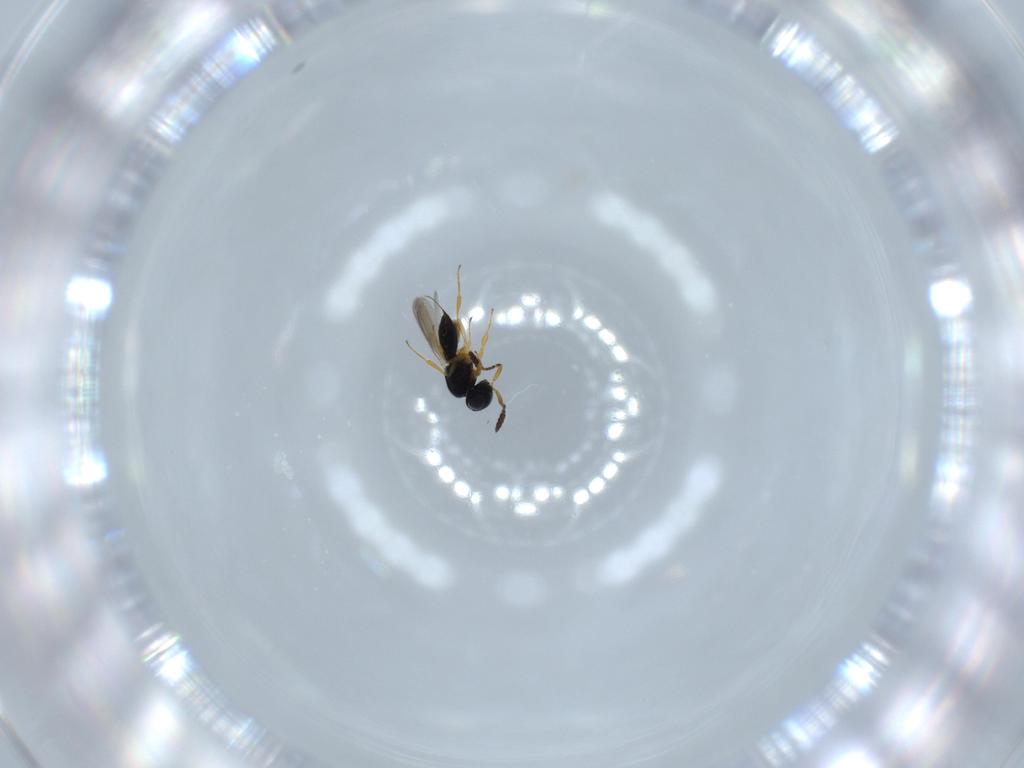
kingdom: Animalia
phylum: Arthropoda
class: Insecta
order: Hymenoptera
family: Scelionidae
